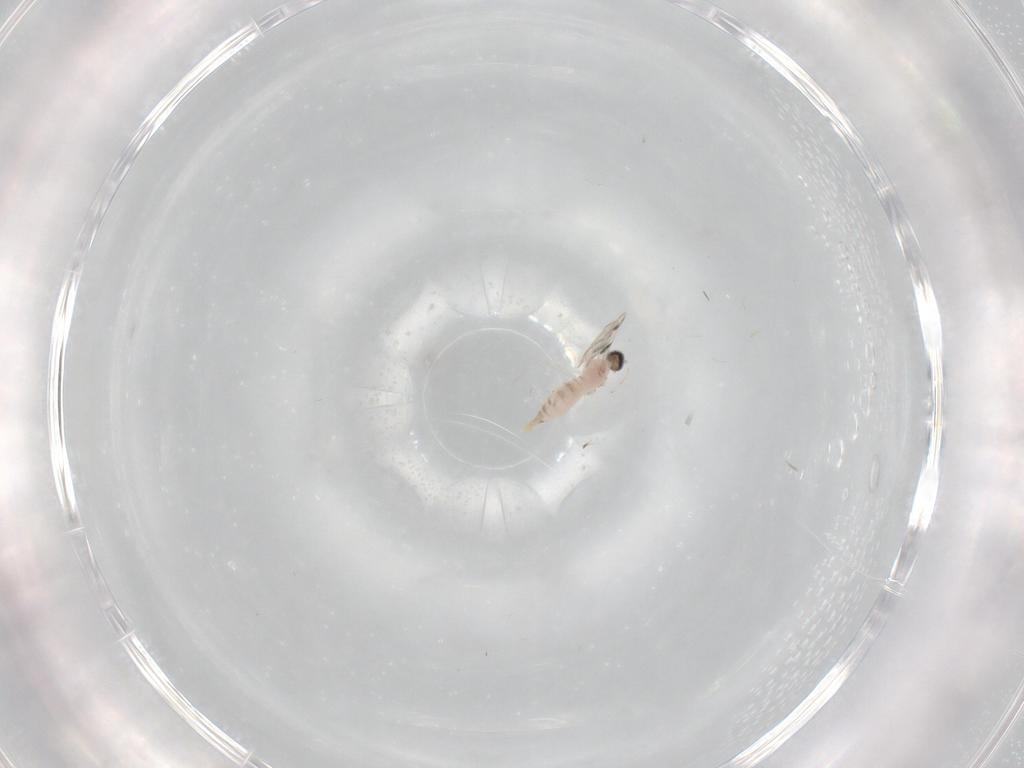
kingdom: Animalia
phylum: Arthropoda
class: Insecta
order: Diptera
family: Cecidomyiidae
